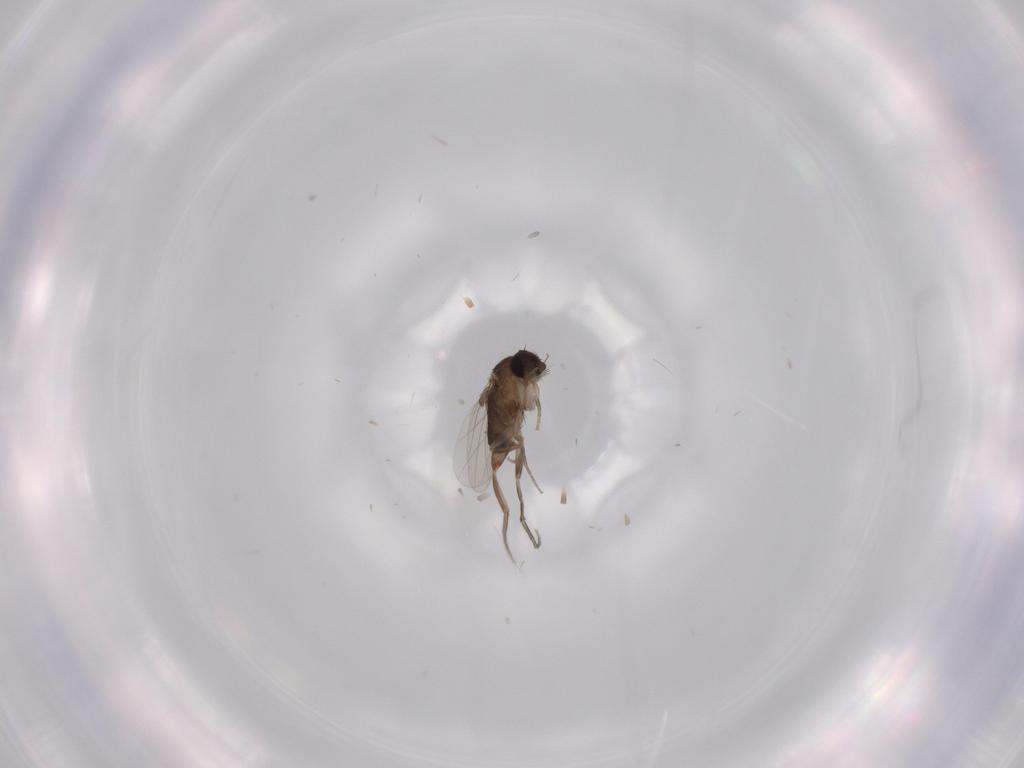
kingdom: Animalia
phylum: Arthropoda
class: Insecta
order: Diptera
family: Phoridae
